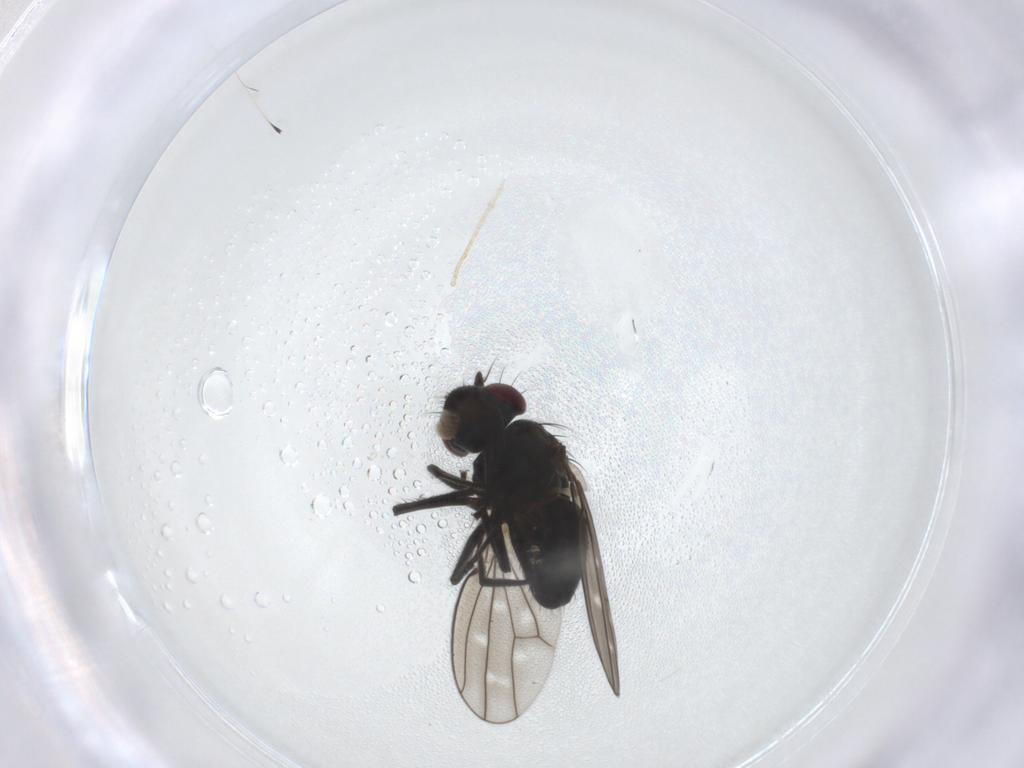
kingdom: Animalia
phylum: Arthropoda
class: Insecta
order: Diptera
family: Ephydridae
